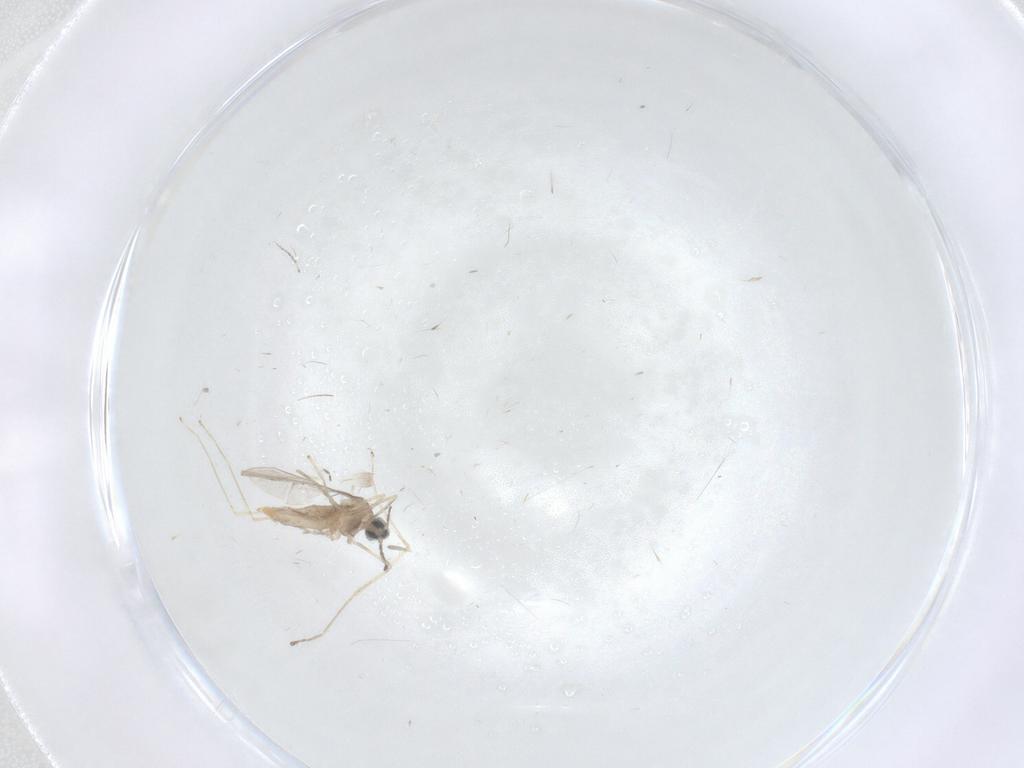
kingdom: Animalia
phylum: Arthropoda
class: Insecta
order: Diptera
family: Cecidomyiidae
